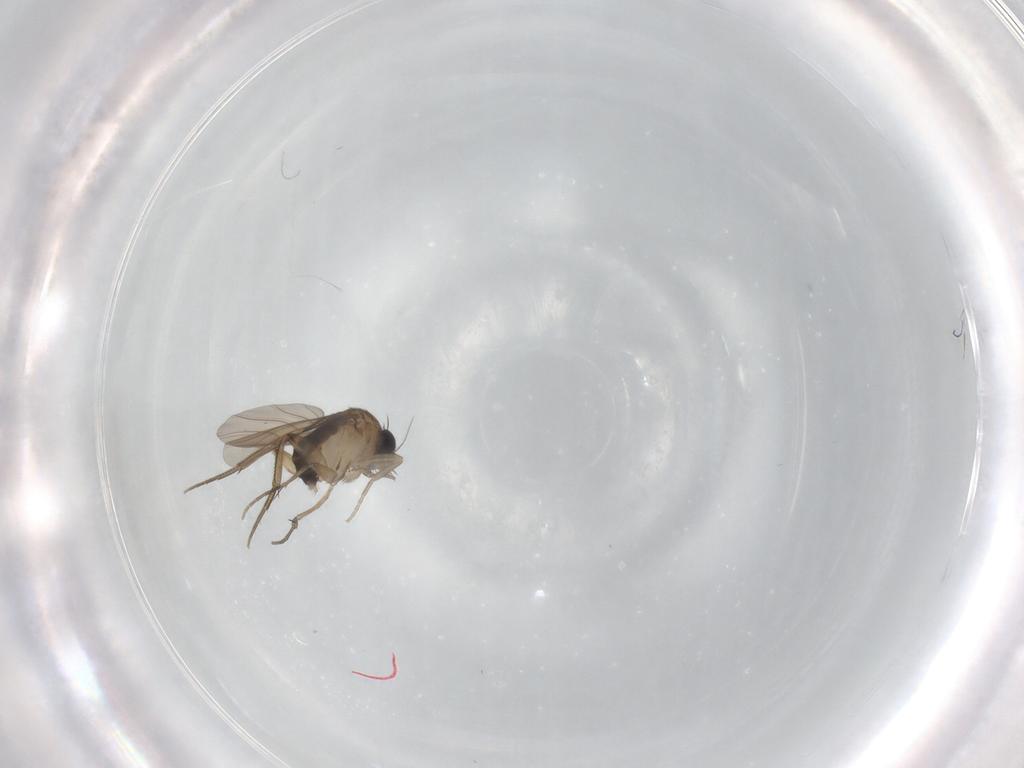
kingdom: Animalia
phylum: Arthropoda
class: Insecta
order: Diptera
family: Phoridae
